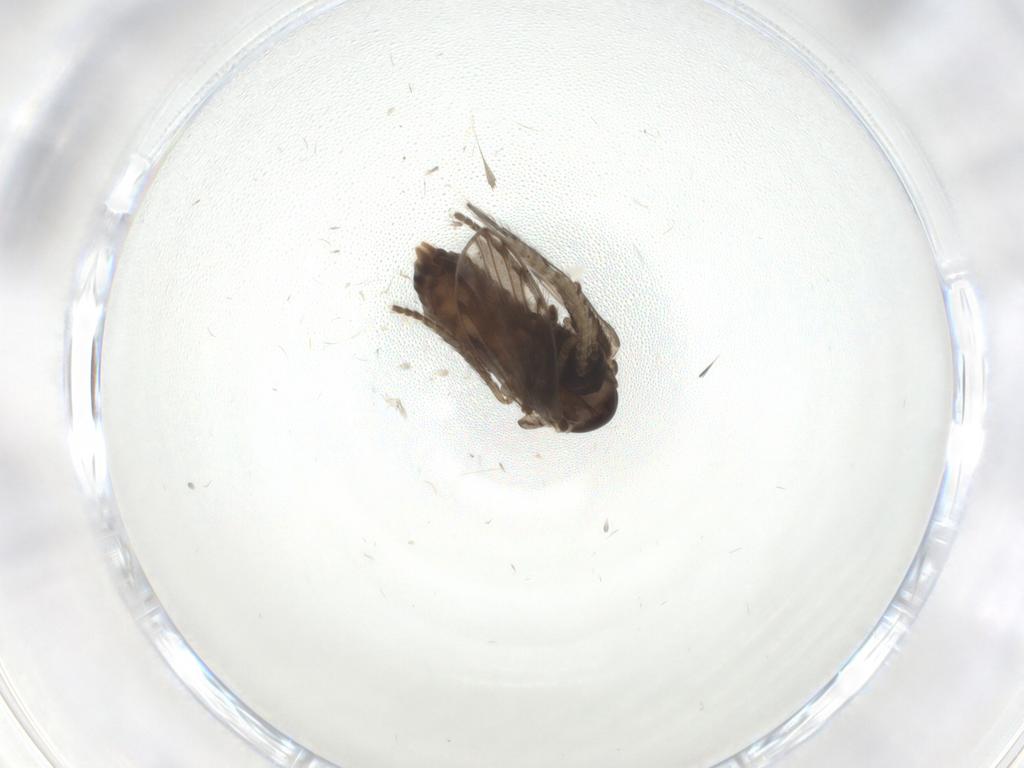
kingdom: Animalia
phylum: Arthropoda
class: Insecta
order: Diptera
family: Psychodidae
